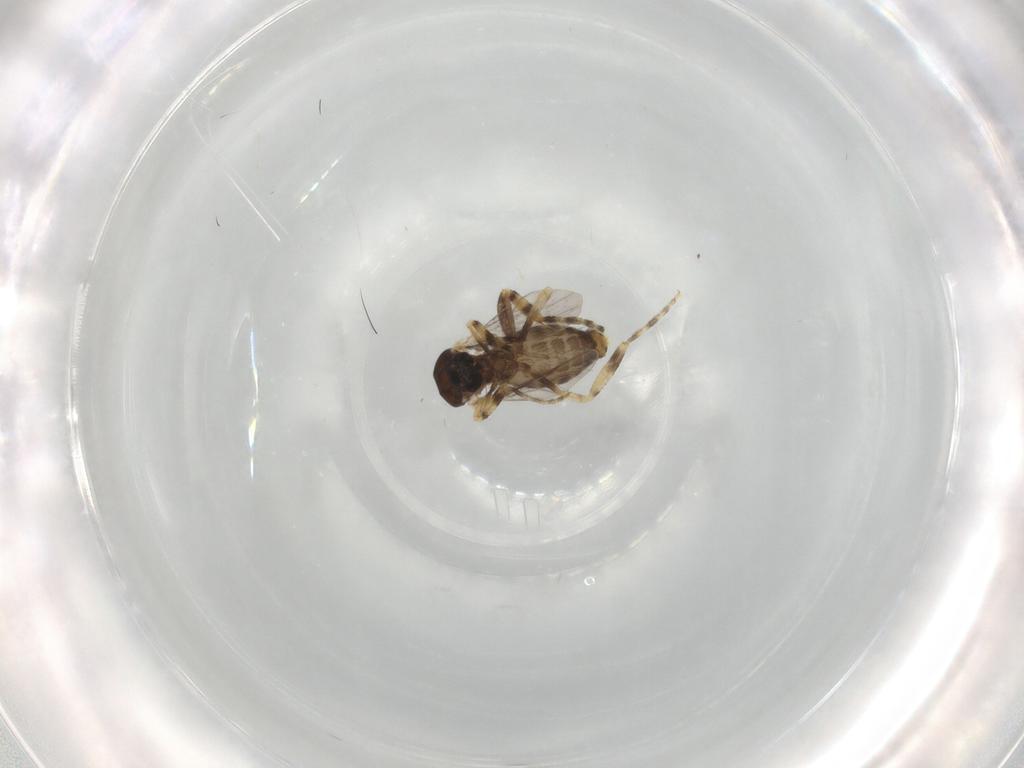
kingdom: Animalia
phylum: Arthropoda
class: Insecta
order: Diptera
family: Ceratopogonidae
